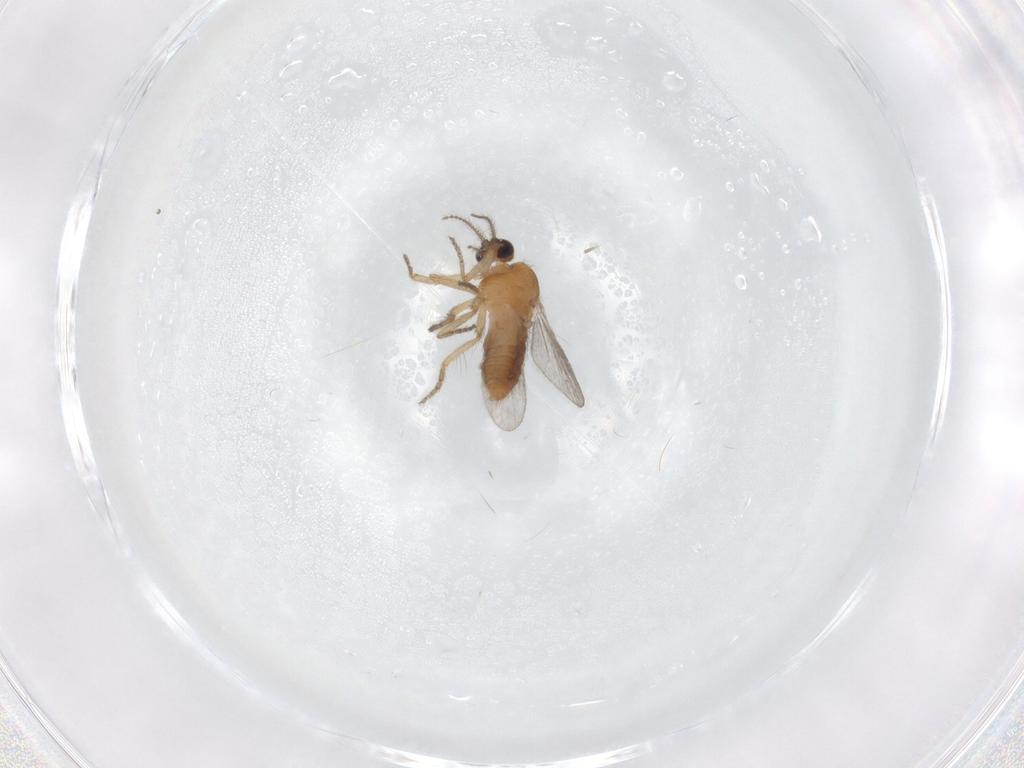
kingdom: Animalia
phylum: Arthropoda
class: Insecta
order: Diptera
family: Ceratopogonidae
